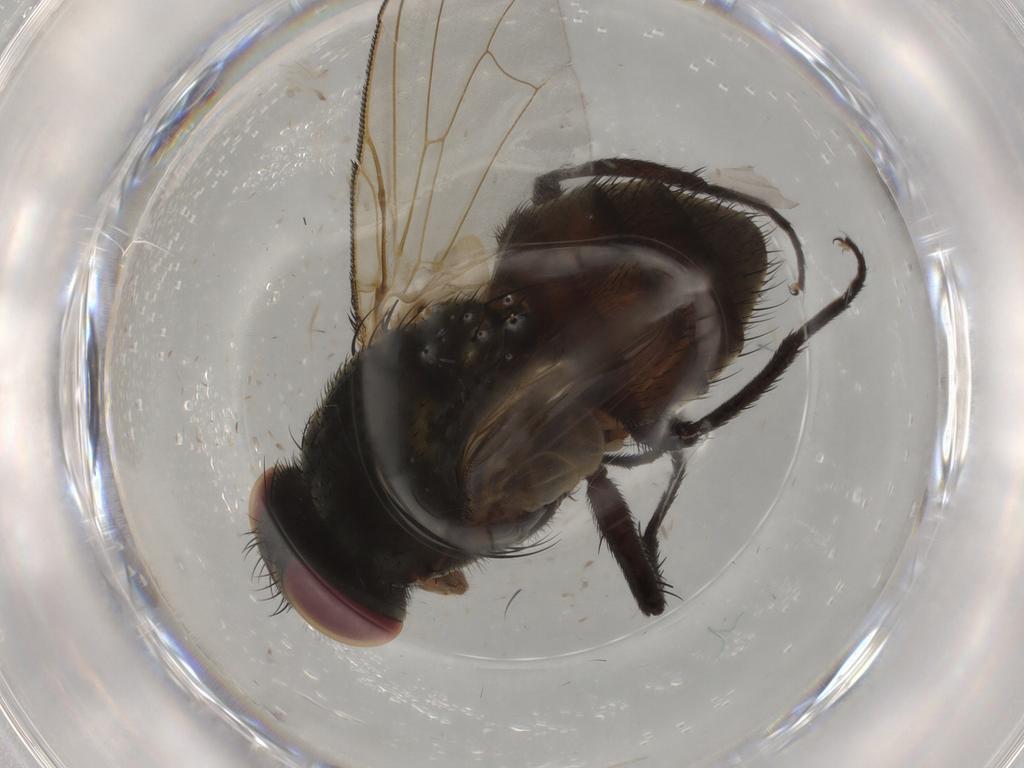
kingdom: Animalia
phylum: Arthropoda
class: Insecta
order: Diptera
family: Muscidae
